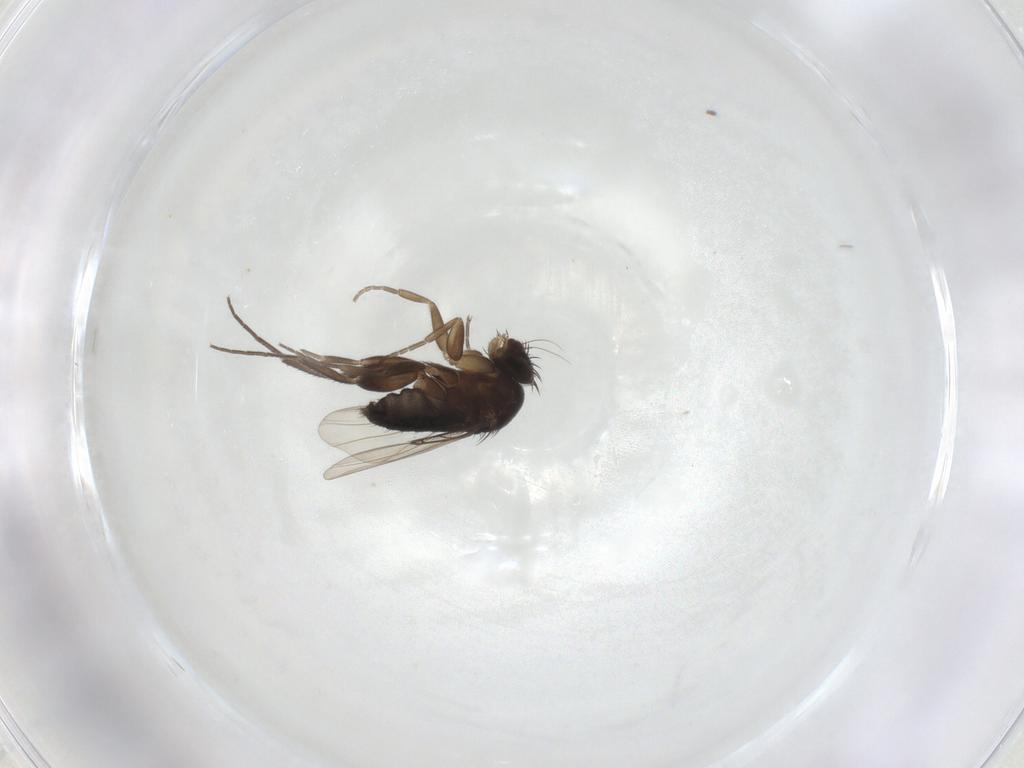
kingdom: Animalia
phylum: Arthropoda
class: Insecta
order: Diptera
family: Phoridae
